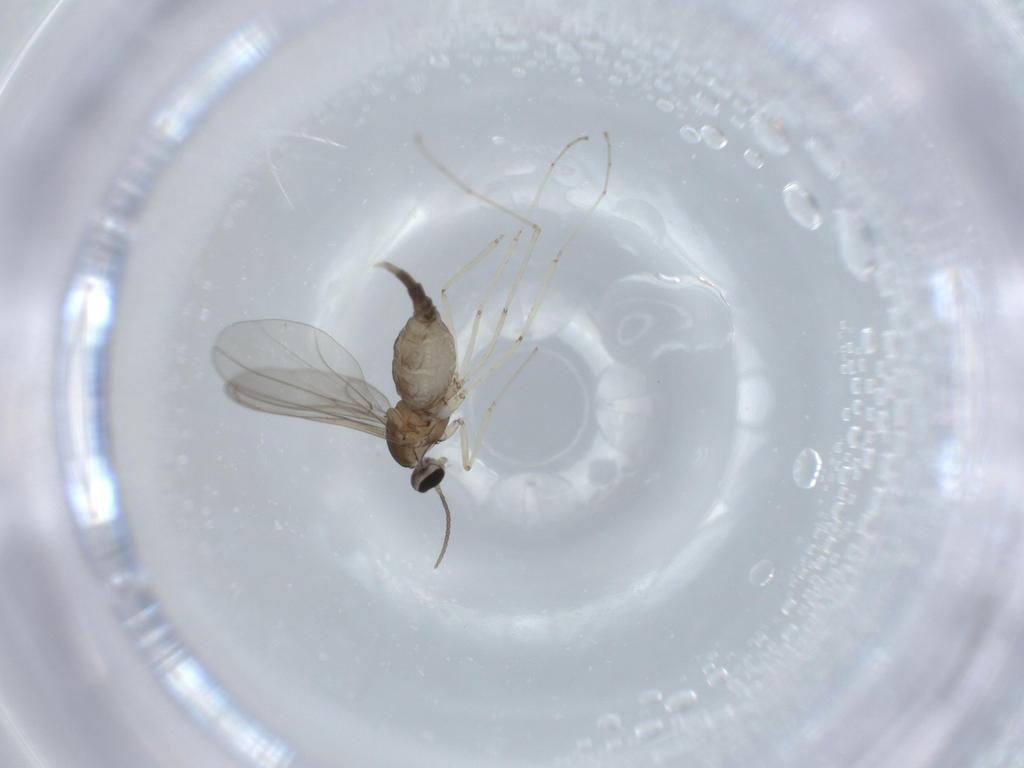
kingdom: Animalia
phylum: Arthropoda
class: Insecta
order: Diptera
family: Cecidomyiidae
